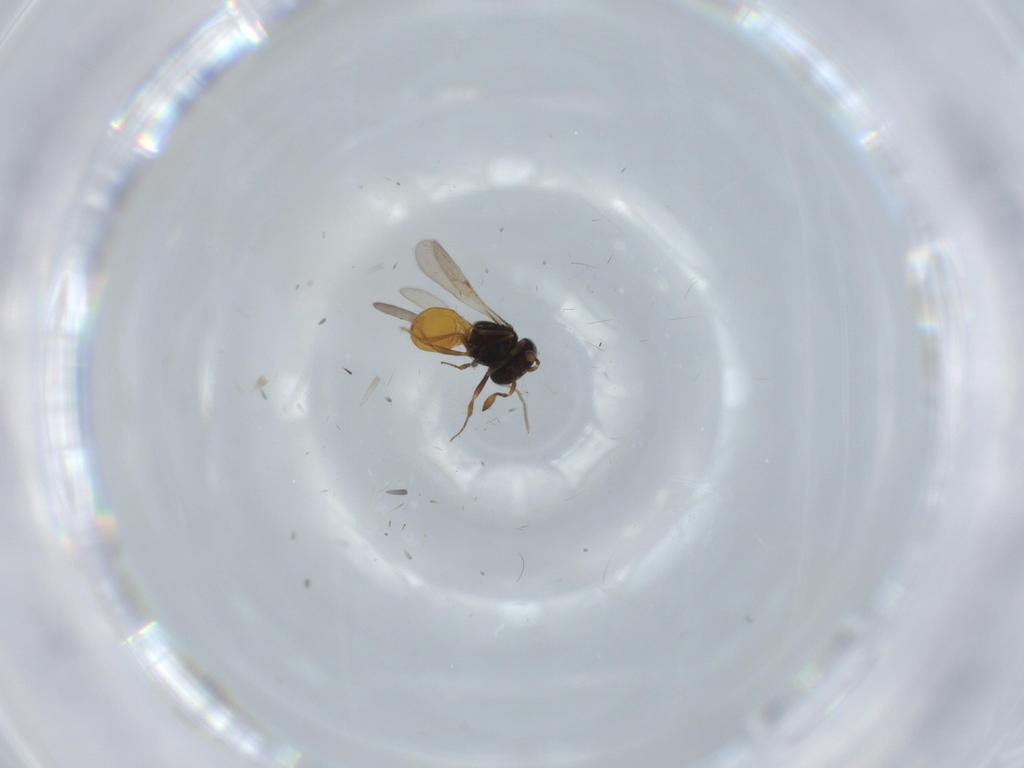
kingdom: Animalia
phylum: Arthropoda
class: Insecta
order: Hymenoptera
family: Scelionidae
